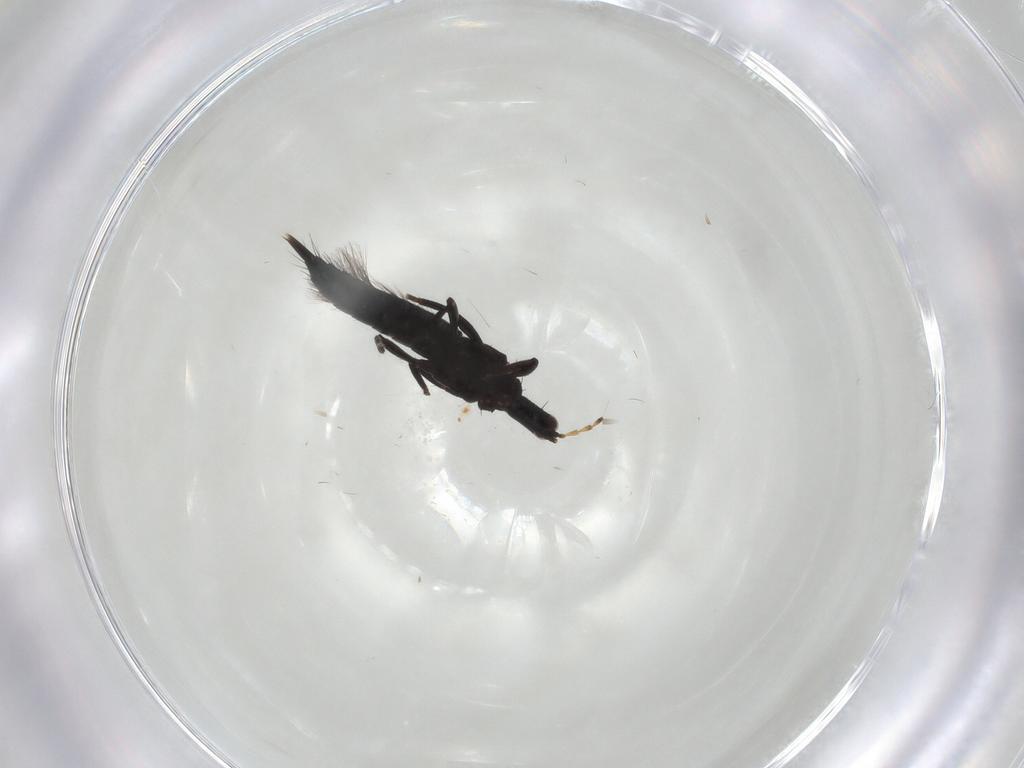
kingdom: Animalia
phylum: Arthropoda
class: Insecta
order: Thysanoptera
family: Phlaeothripidae
